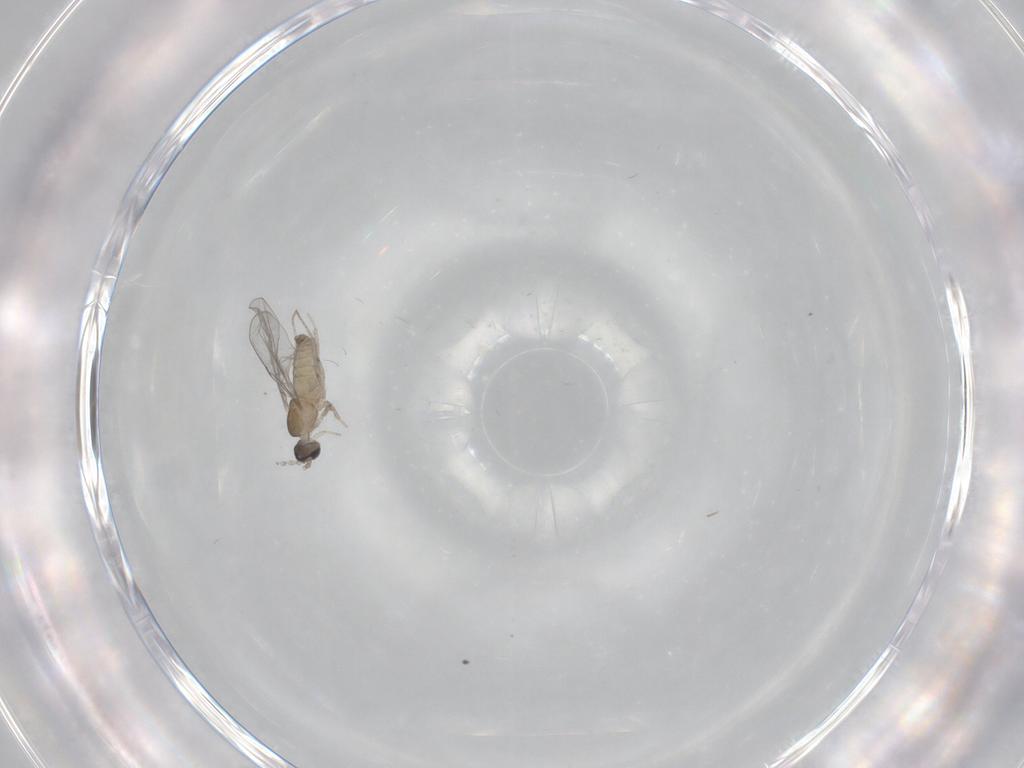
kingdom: Animalia
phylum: Arthropoda
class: Insecta
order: Diptera
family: Cecidomyiidae
